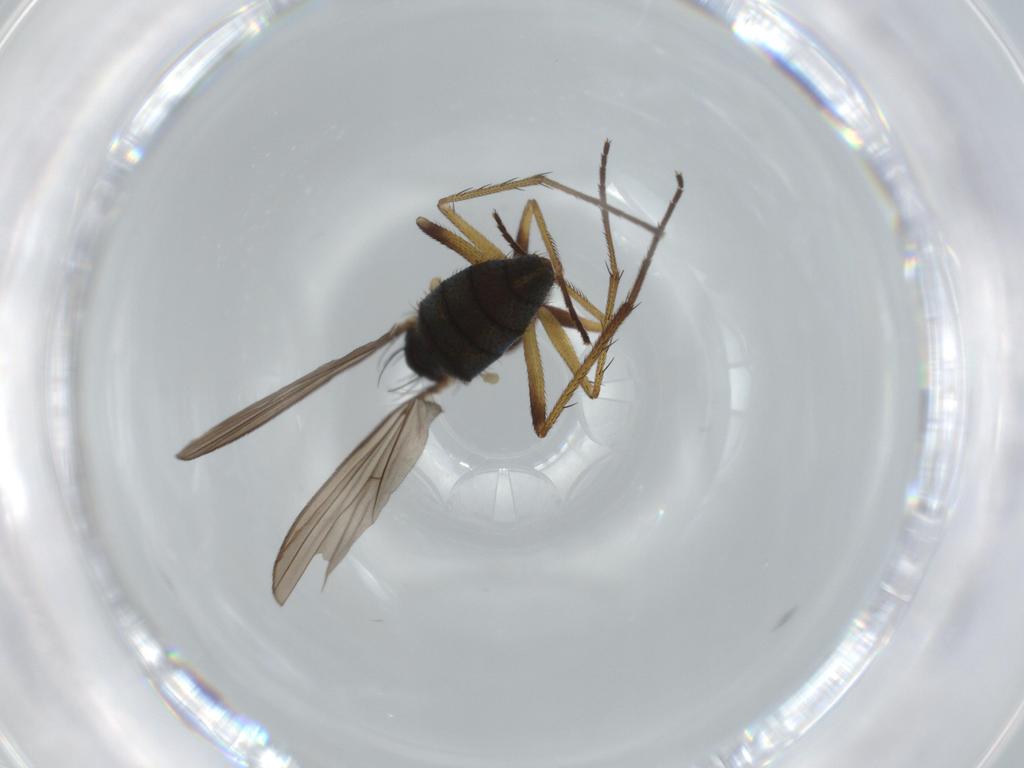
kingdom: Animalia
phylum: Arthropoda
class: Insecta
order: Diptera
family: Dolichopodidae
